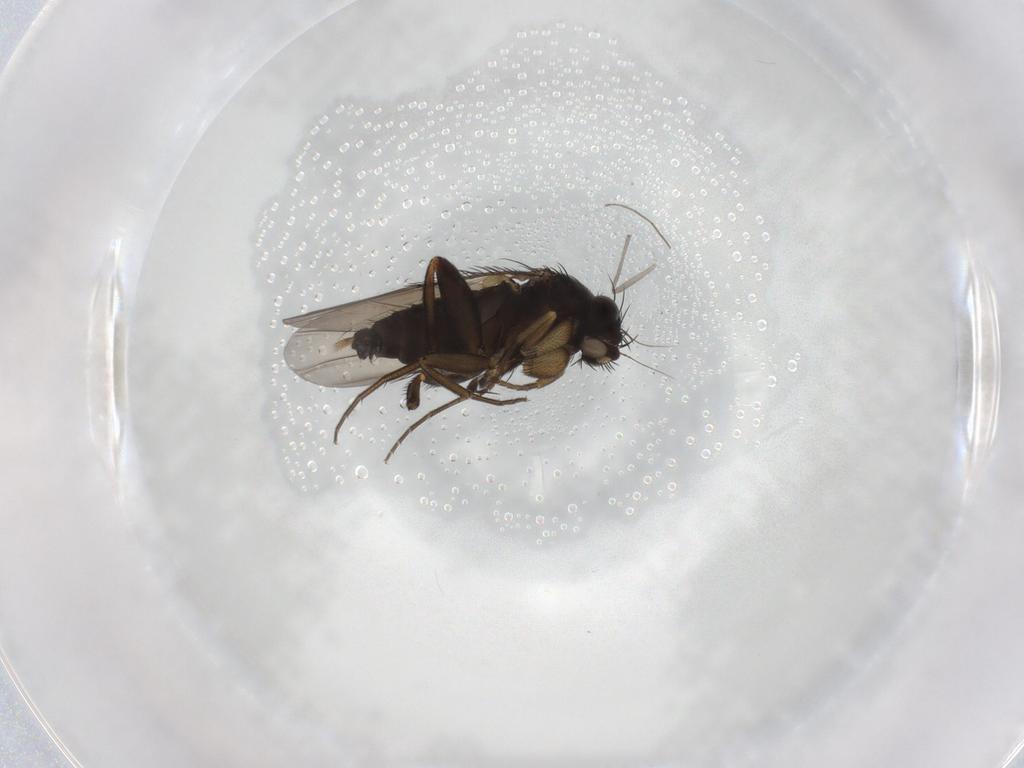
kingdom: Animalia
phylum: Arthropoda
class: Insecta
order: Diptera
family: Phoridae
